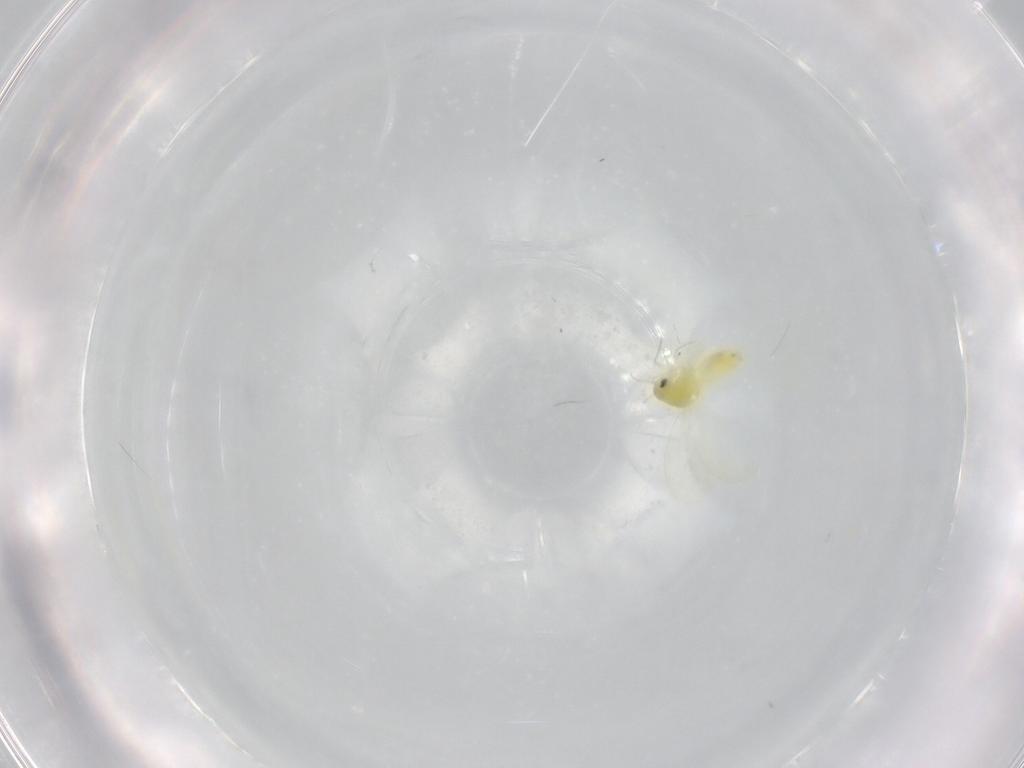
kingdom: Animalia
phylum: Arthropoda
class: Insecta
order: Hemiptera
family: Aleyrodidae
